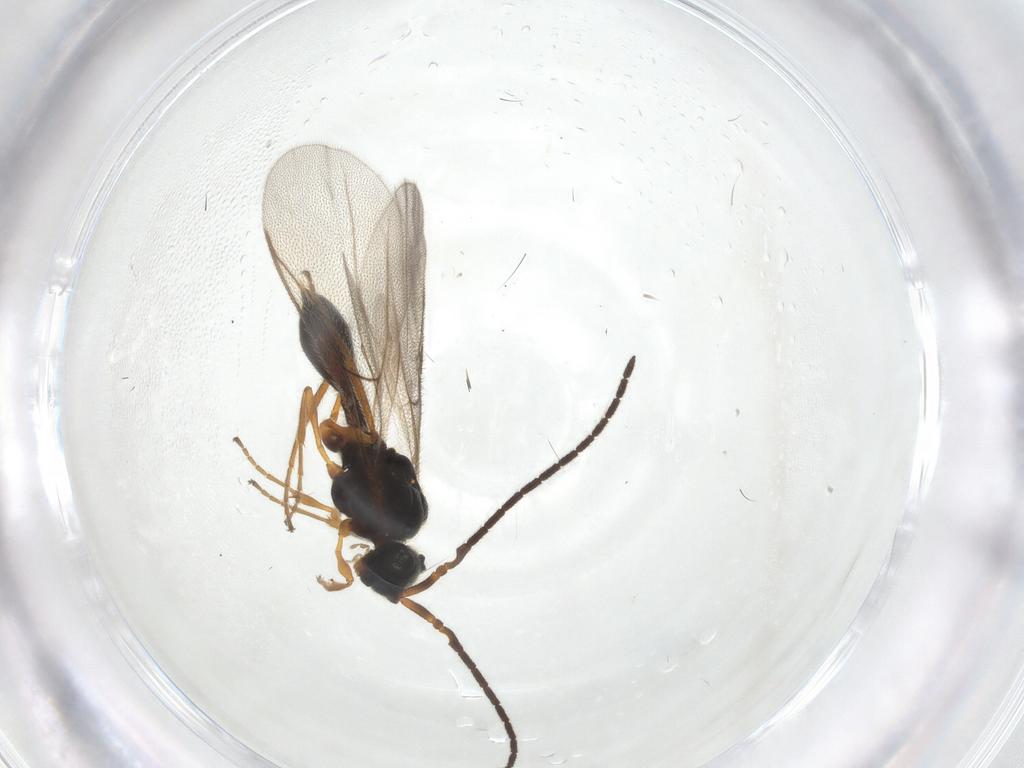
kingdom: Animalia
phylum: Arthropoda
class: Insecta
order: Hymenoptera
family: Diapriidae
